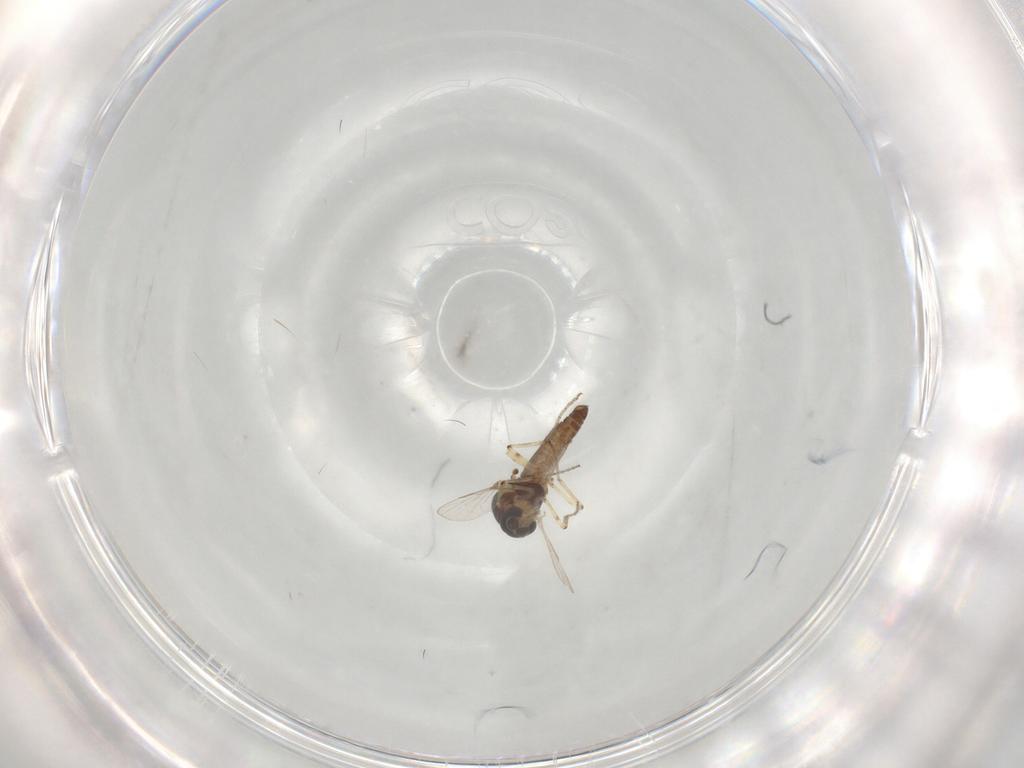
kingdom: Animalia
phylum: Arthropoda
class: Insecta
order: Diptera
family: Ceratopogonidae
